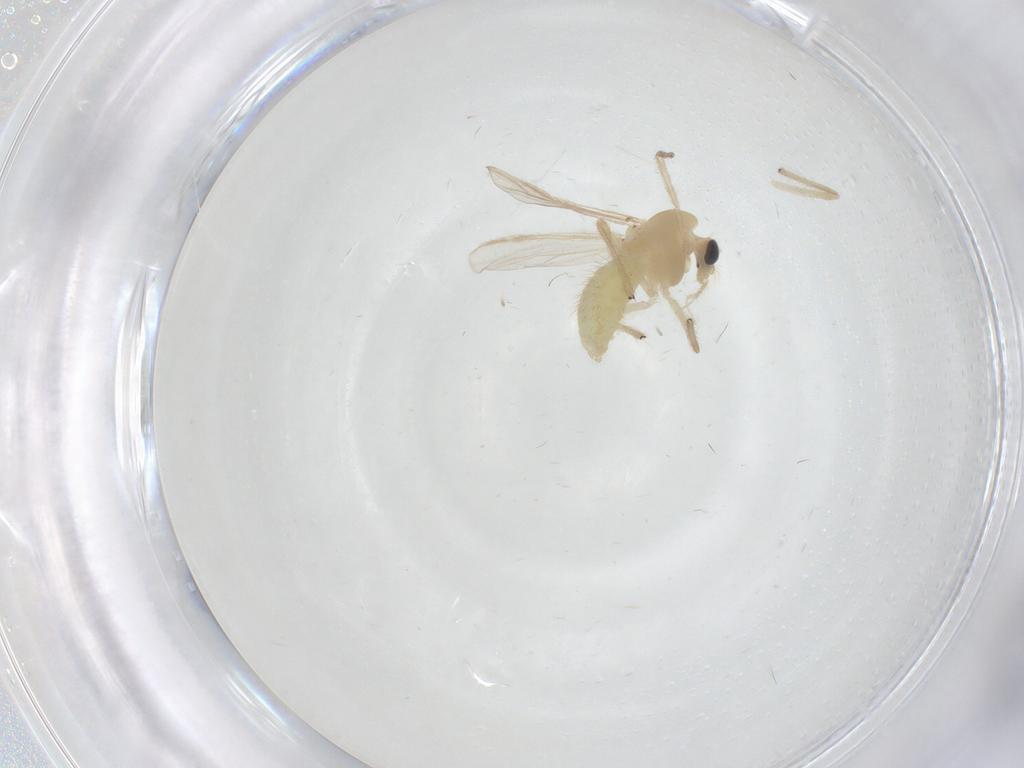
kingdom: Animalia
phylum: Arthropoda
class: Insecta
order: Diptera
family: Chironomidae
